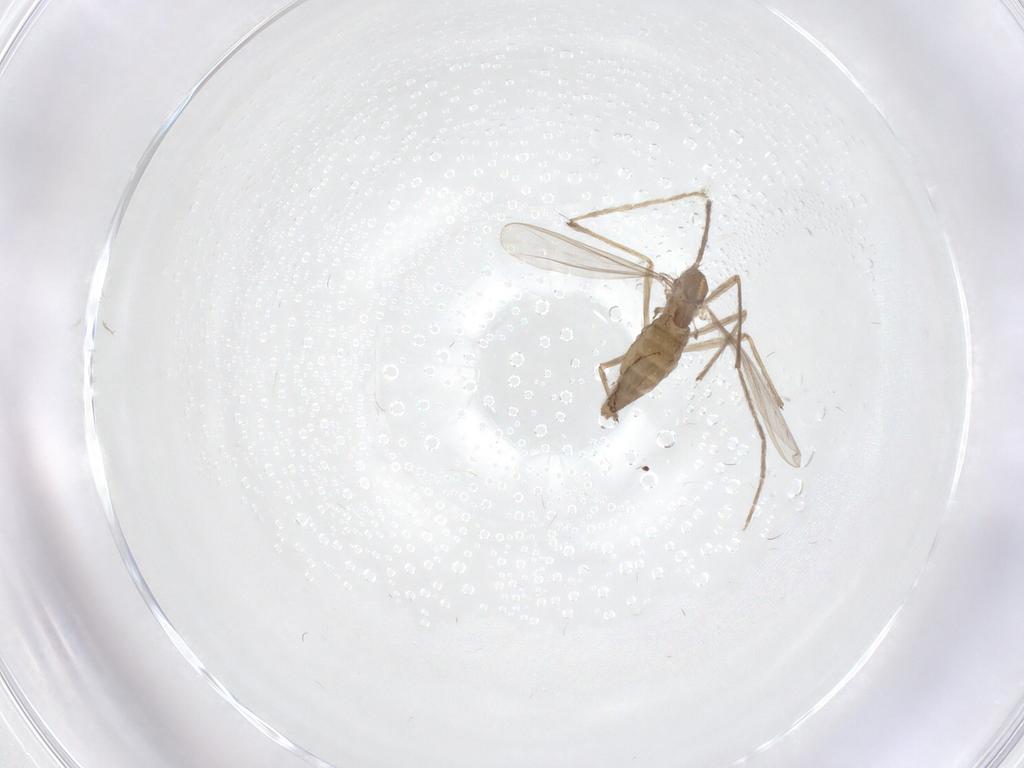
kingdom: Animalia
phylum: Arthropoda
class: Insecta
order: Diptera
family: Chironomidae
